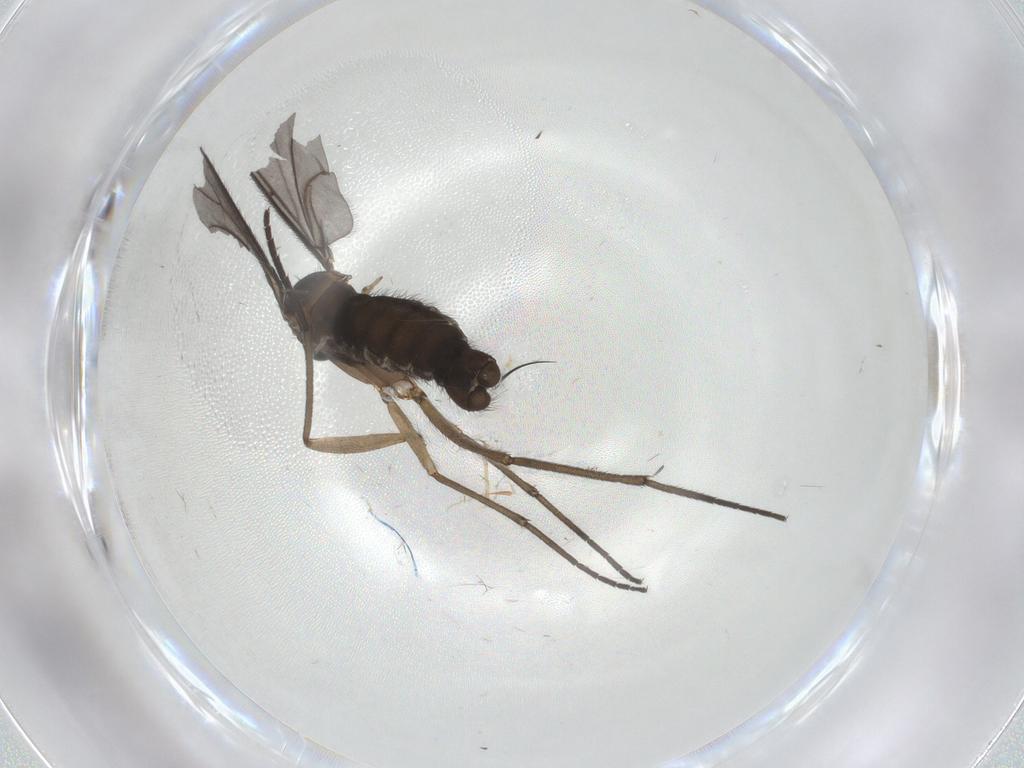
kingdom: Animalia
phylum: Arthropoda
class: Insecta
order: Diptera
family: Sciaridae
